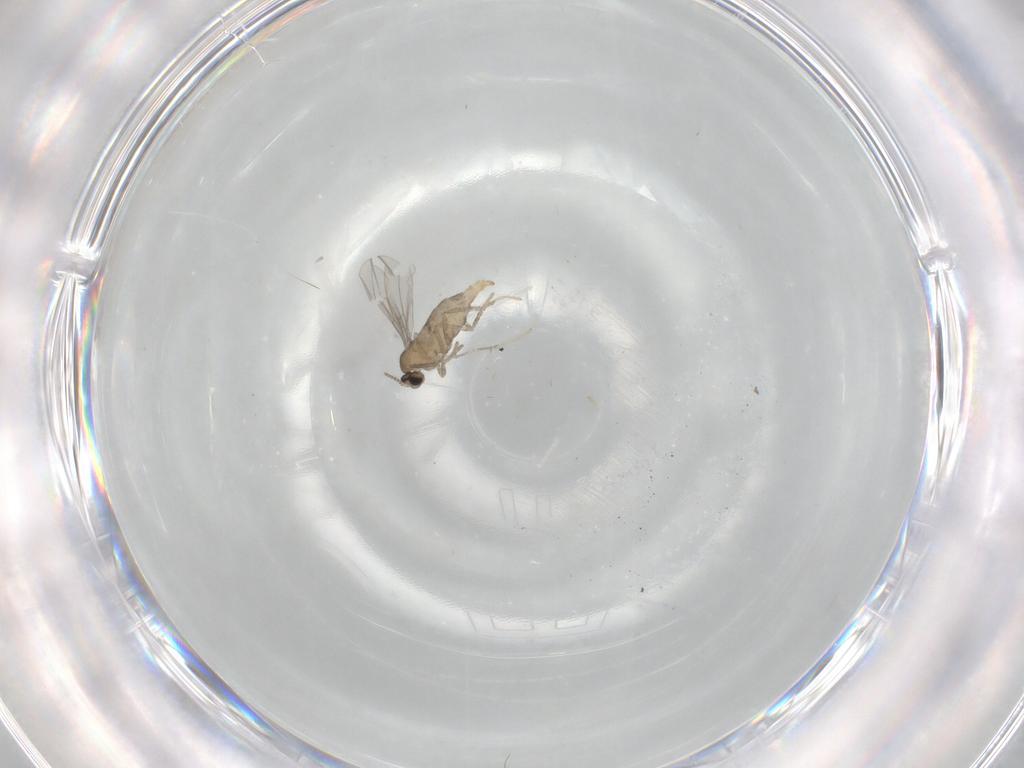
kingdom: Animalia
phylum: Arthropoda
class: Insecta
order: Diptera
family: Cecidomyiidae
